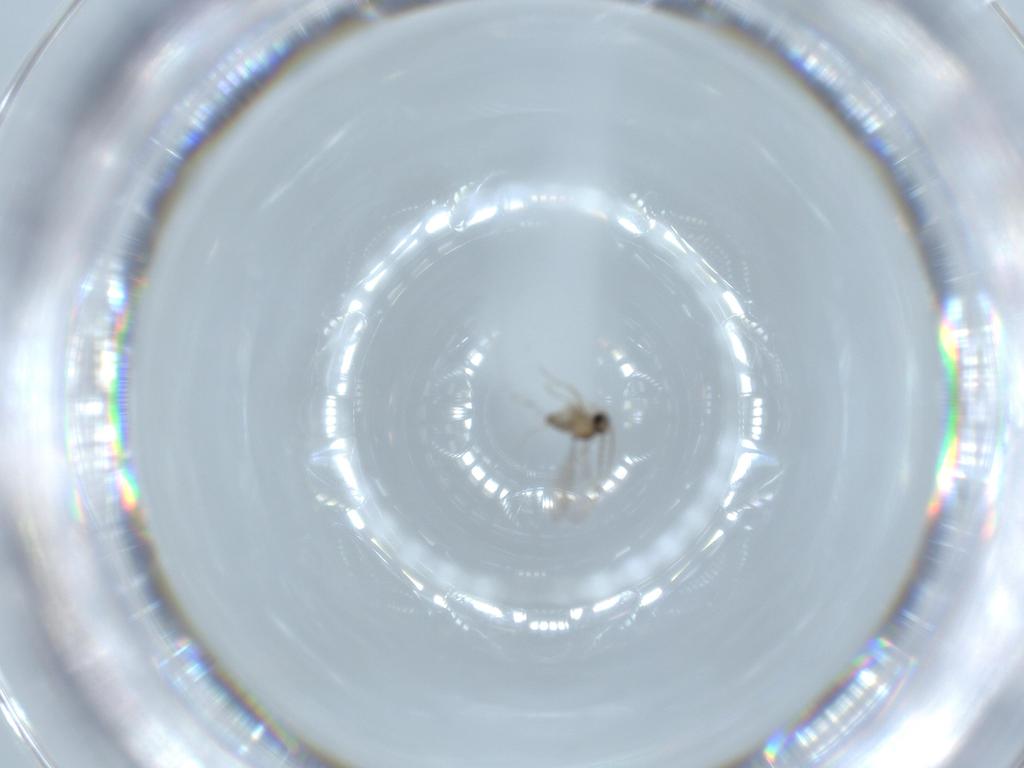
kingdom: Animalia
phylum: Arthropoda
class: Insecta
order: Diptera
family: Cecidomyiidae
